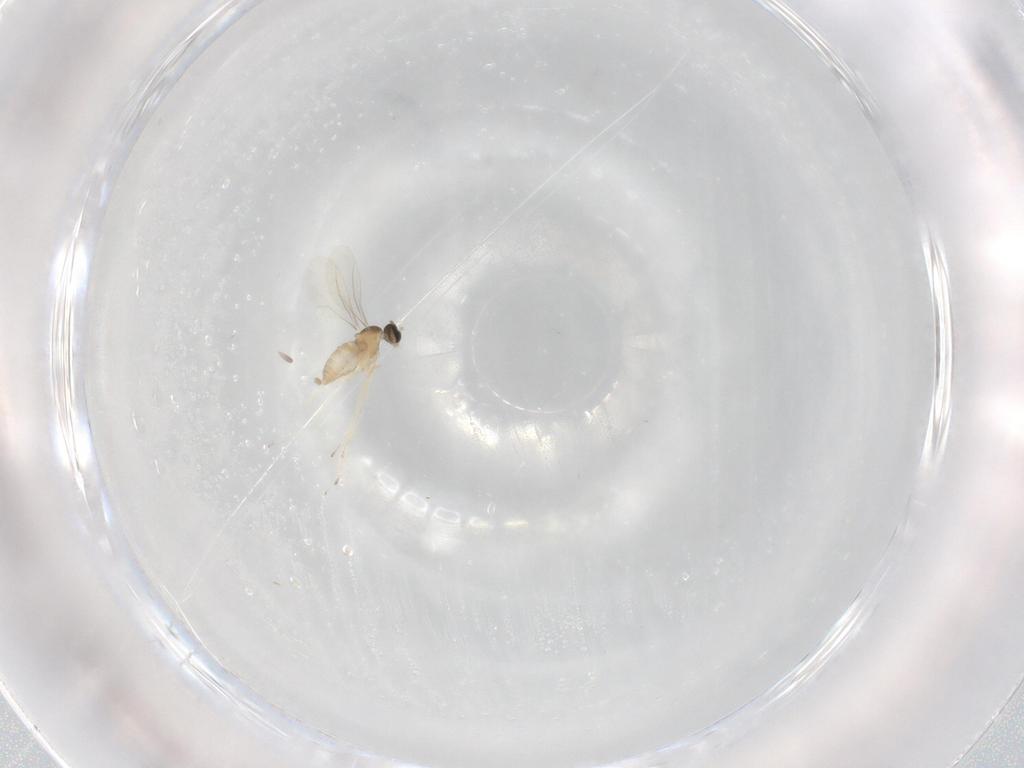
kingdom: Animalia
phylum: Arthropoda
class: Insecta
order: Diptera
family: Cecidomyiidae
